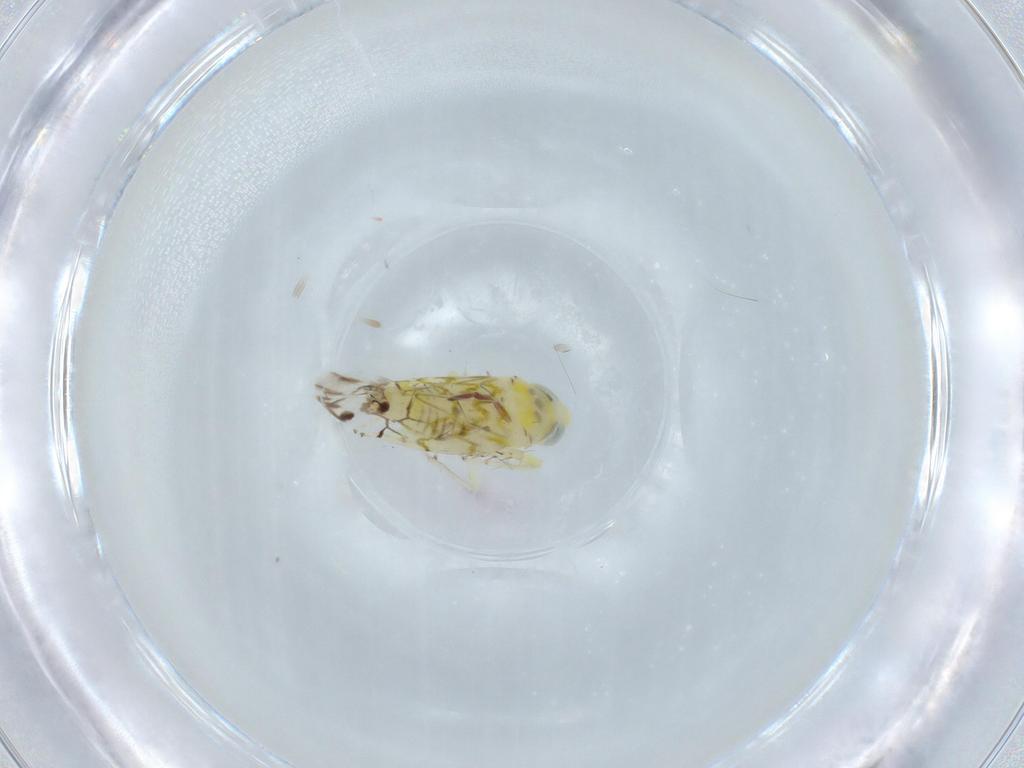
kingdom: Animalia
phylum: Arthropoda
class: Insecta
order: Hemiptera
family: Cicadellidae
